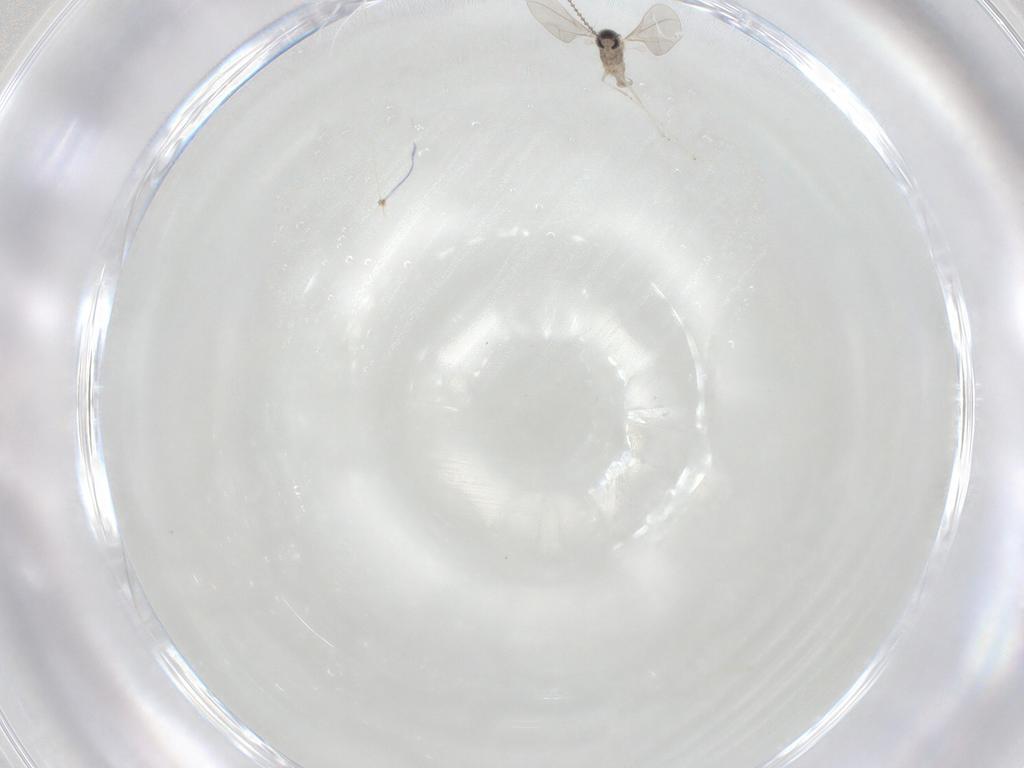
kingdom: Animalia
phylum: Arthropoda
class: Insecta
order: Diptera
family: Cecidomyiidae
